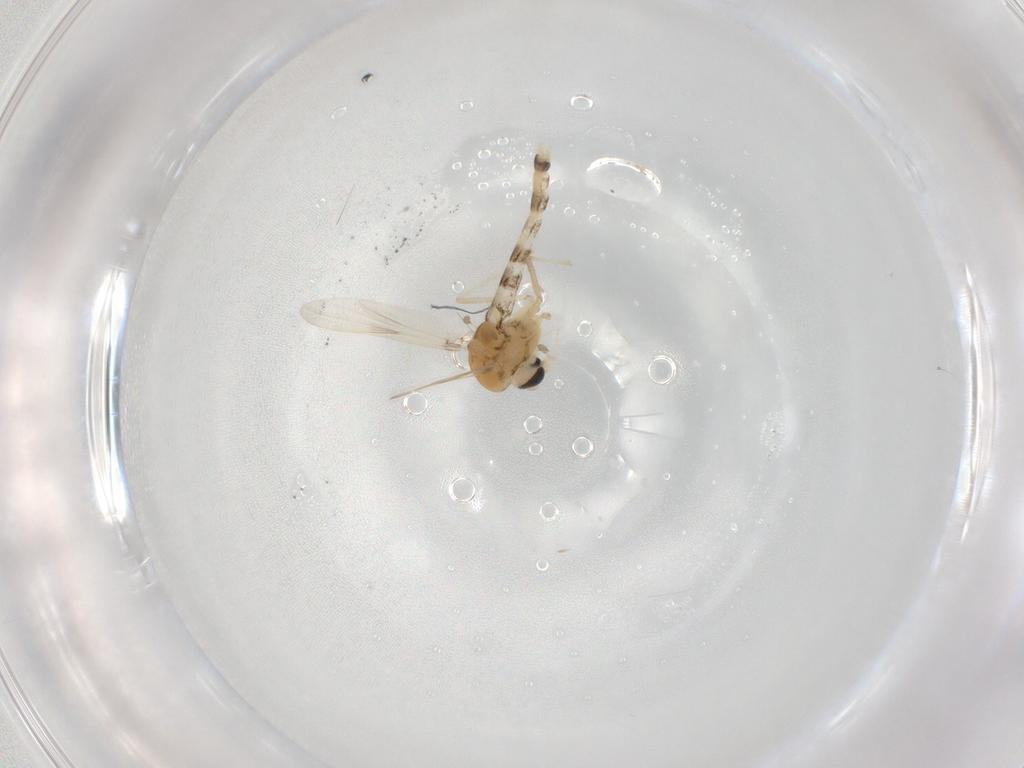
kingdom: Animalia
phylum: Arthropoda
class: Insecta
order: Diptera
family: Chironomidae
